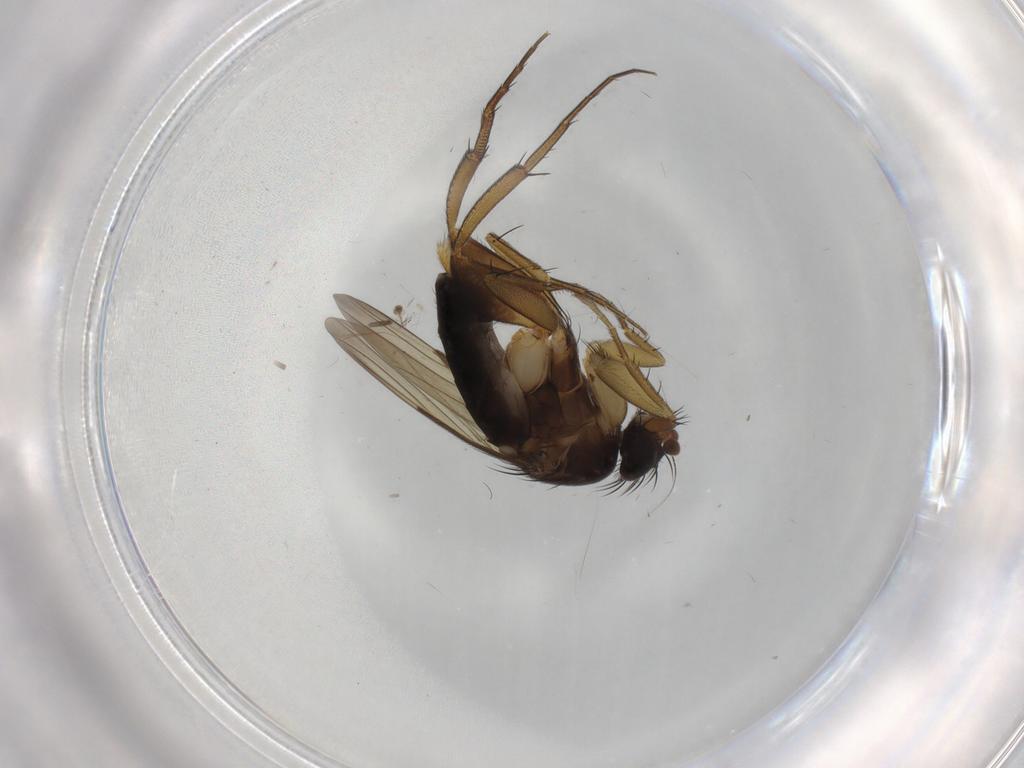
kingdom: Animalia
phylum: Arthropoda
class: Insecta
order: Diptera
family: Phoridae
